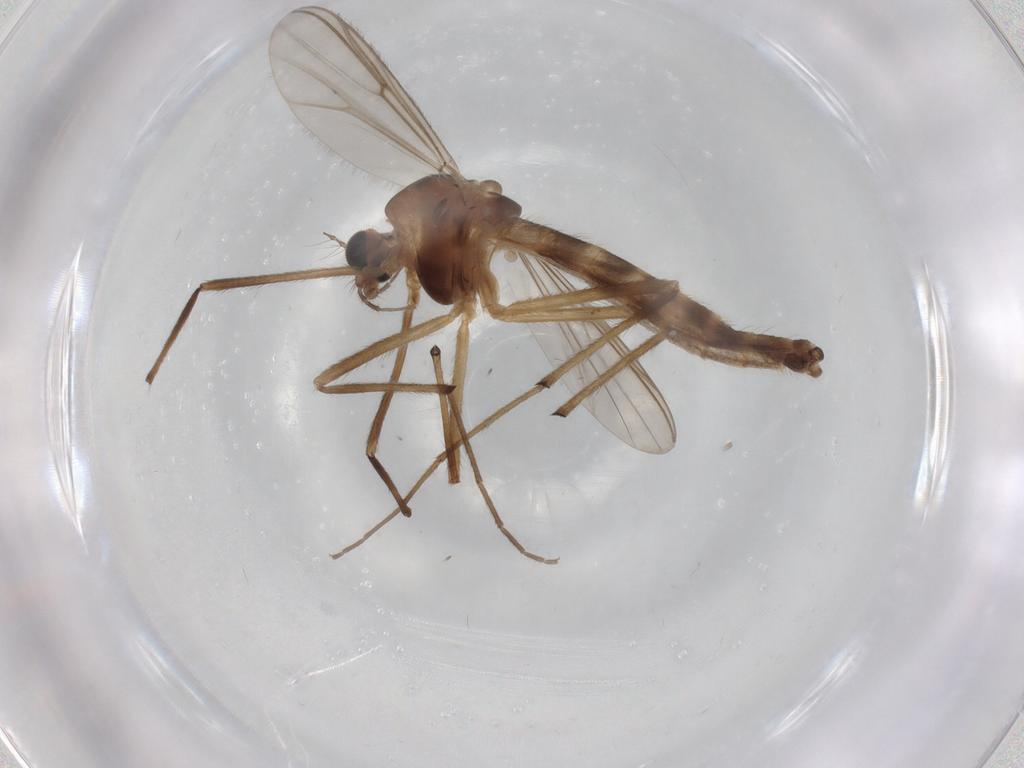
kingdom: Animalia
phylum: Arthropoda
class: Insecta
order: Diptera
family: Chironomidae
